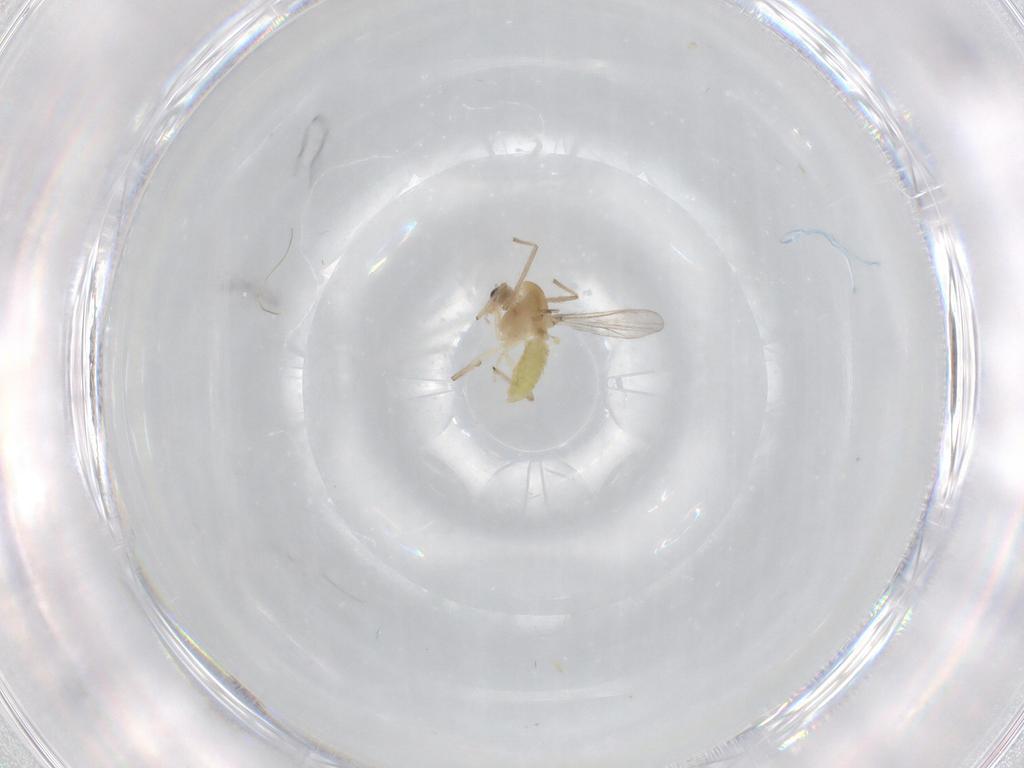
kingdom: Animalia
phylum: Arthropoda
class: Insecta
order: Diptera
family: Chironomidae
